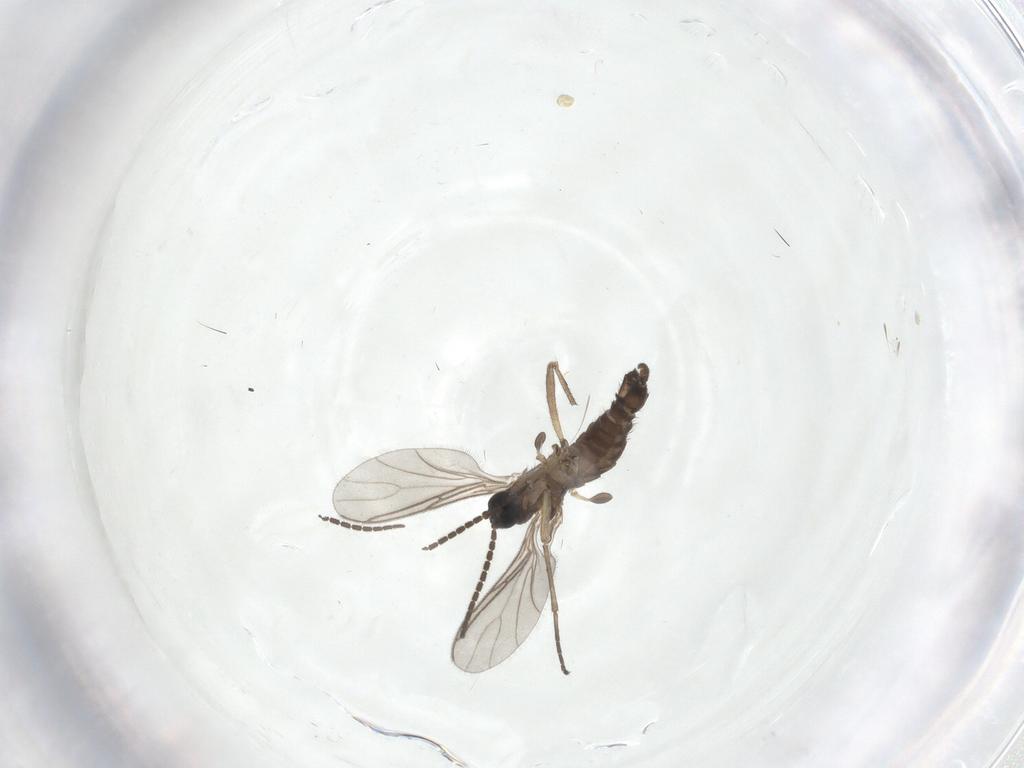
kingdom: Animalia
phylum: Arthropoda
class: Insecta
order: Diptera
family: Sciaridae
